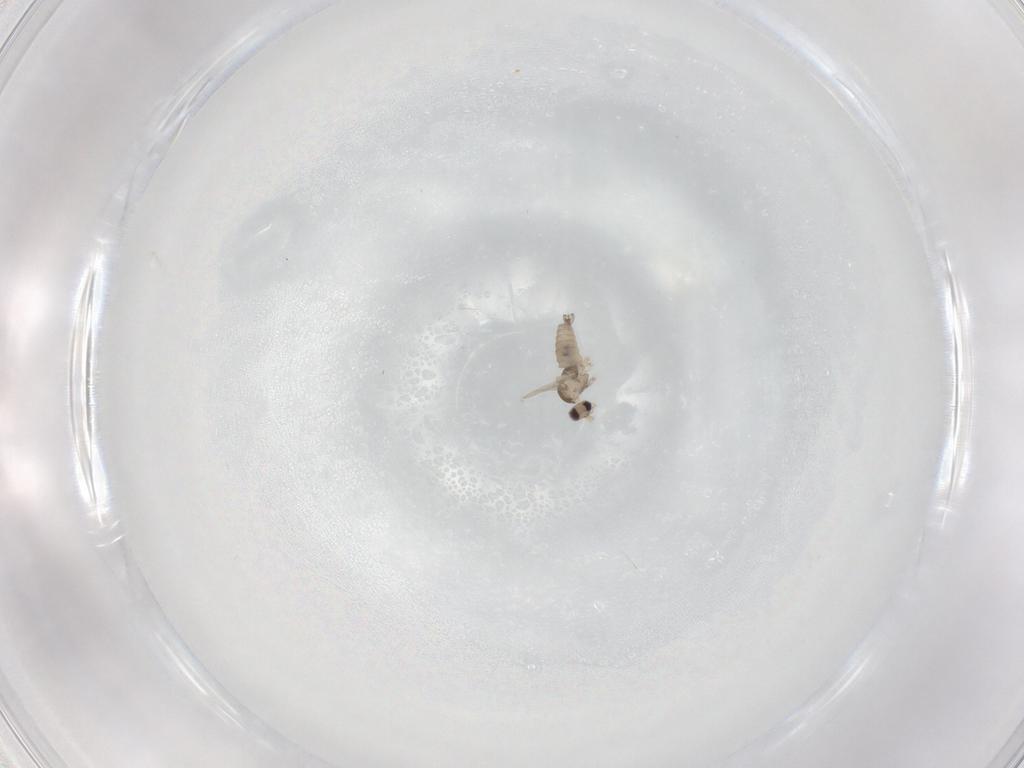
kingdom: Animalia
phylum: Arthropoda
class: Insecta
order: Diptera
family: Cecidomyiidae
